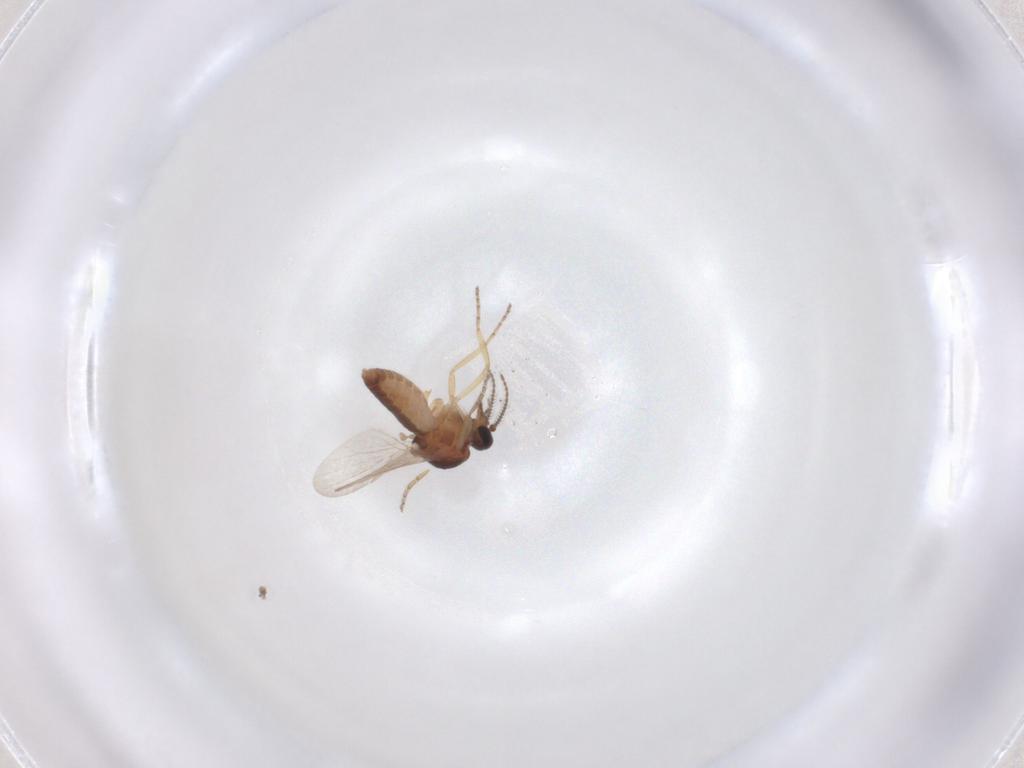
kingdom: Animalia
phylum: Arthropoda
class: Insecta
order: Diptera
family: Ceratopogonidae
